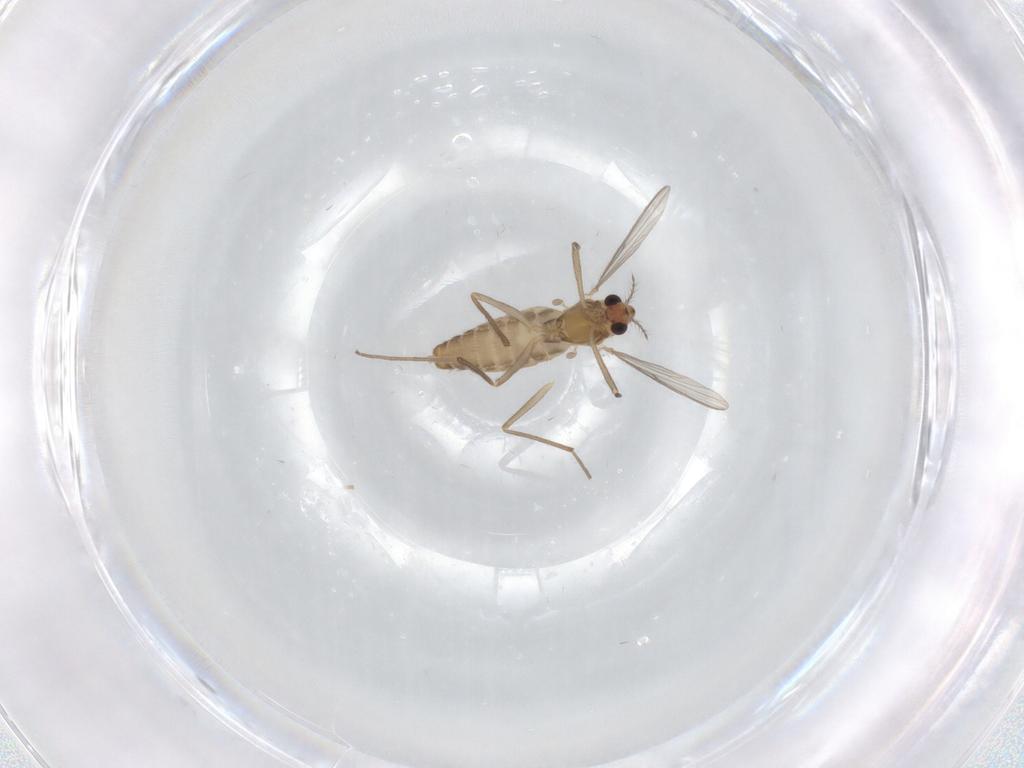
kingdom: Animalia
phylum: Arthropoda
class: Insecta
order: Diptera
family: Chironomidae
